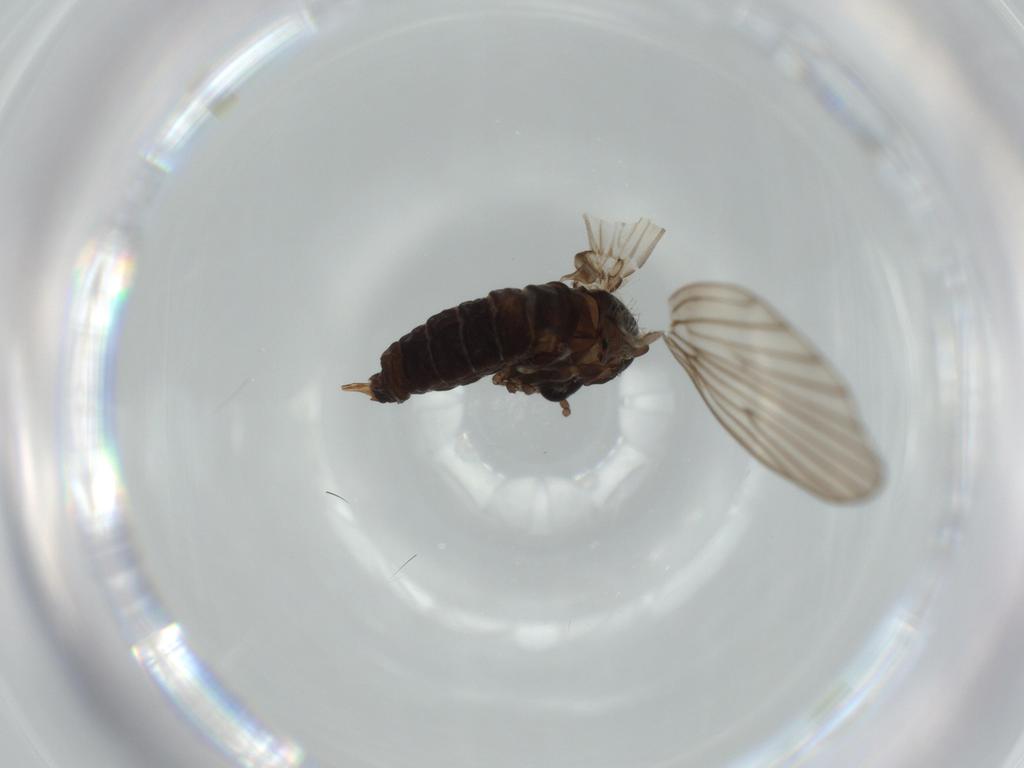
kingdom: Animalia
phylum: Arthropoda
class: Insecta
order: Diptera
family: Psychodidae
